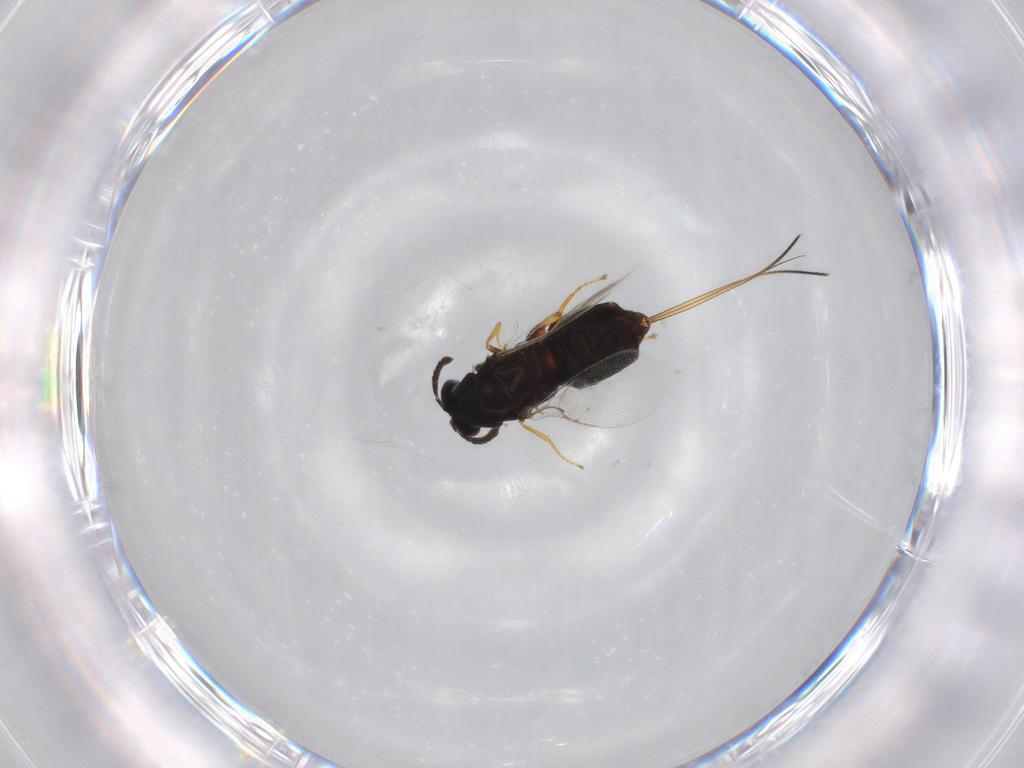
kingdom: Animalia
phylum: Arthropoda
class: Insecta
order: Hymenoptera
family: Agaonidae
